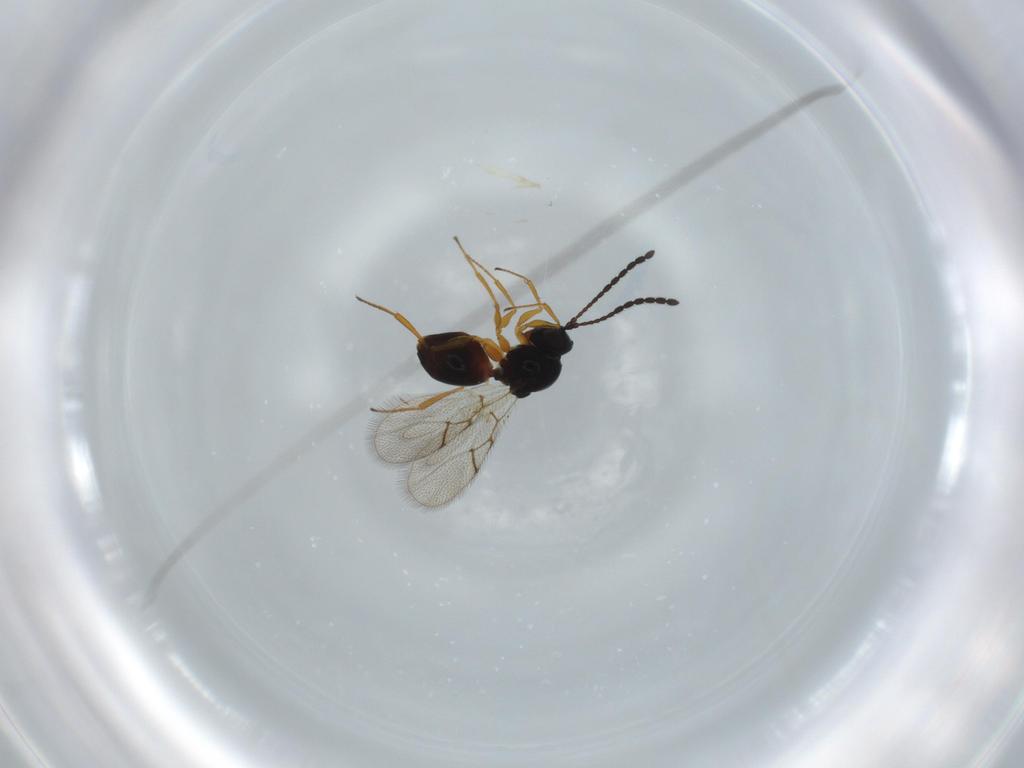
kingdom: Animalia
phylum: Arthropoda
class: Insecta
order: Hymenoptera
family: Figitidae
